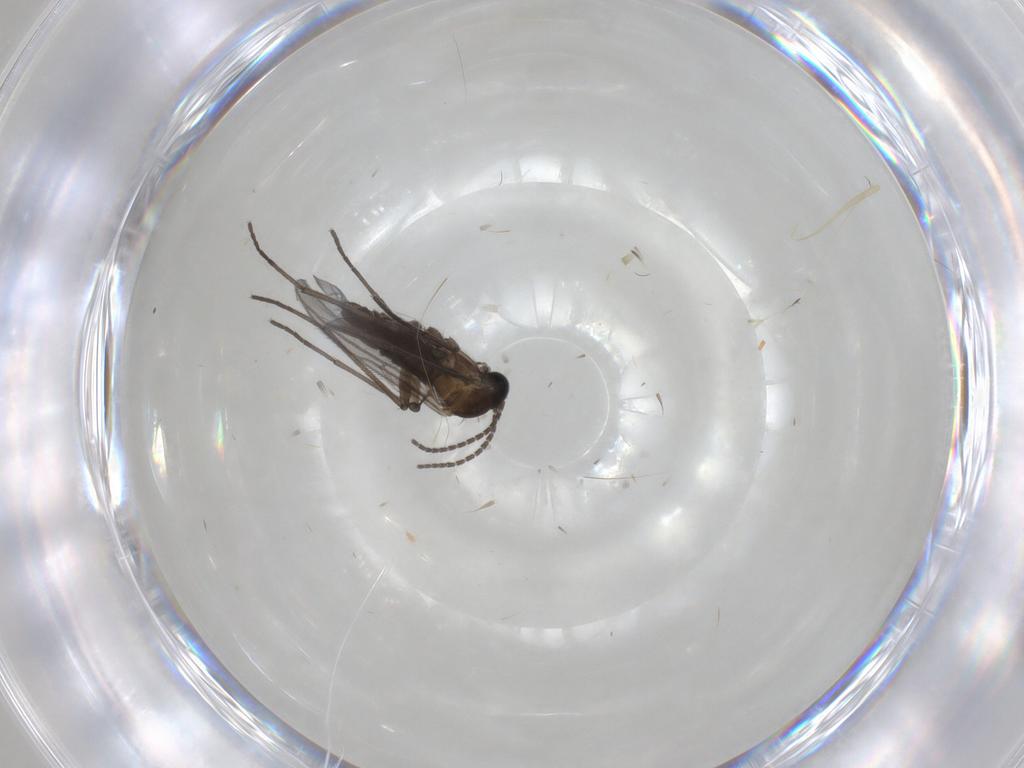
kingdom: Animalia
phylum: Arthropoda
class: Insecta
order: Diptera
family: Sciaridae
